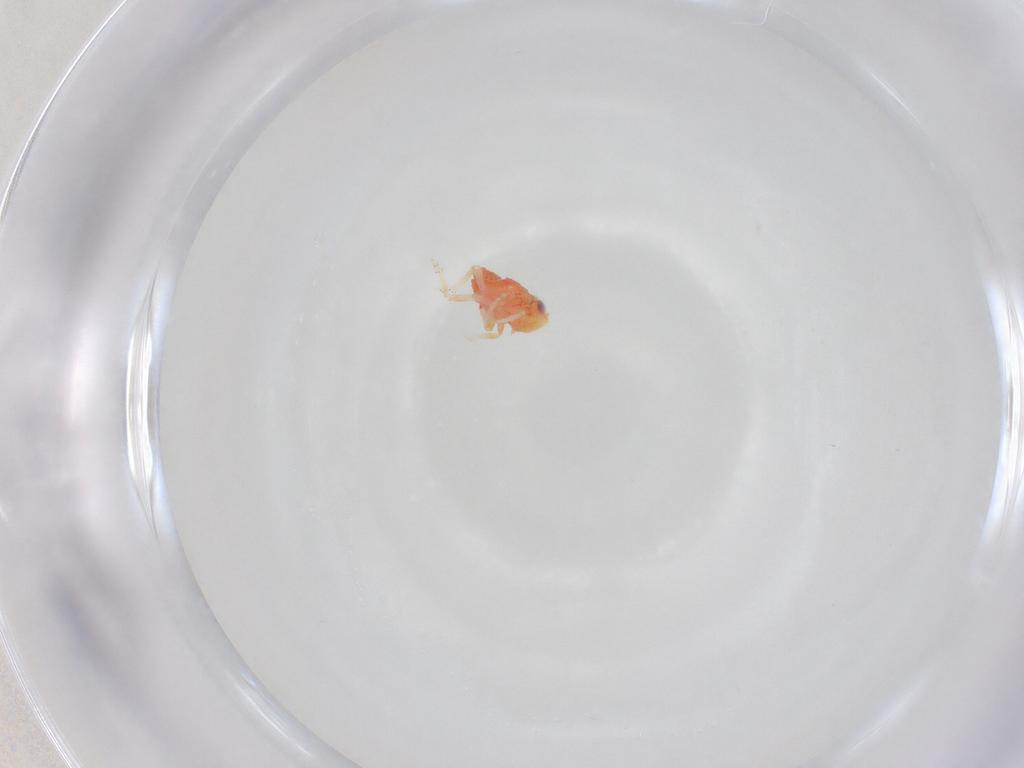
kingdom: Animalia
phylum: Arthropoda
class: Insecta
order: Hemiptera
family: Issidae
